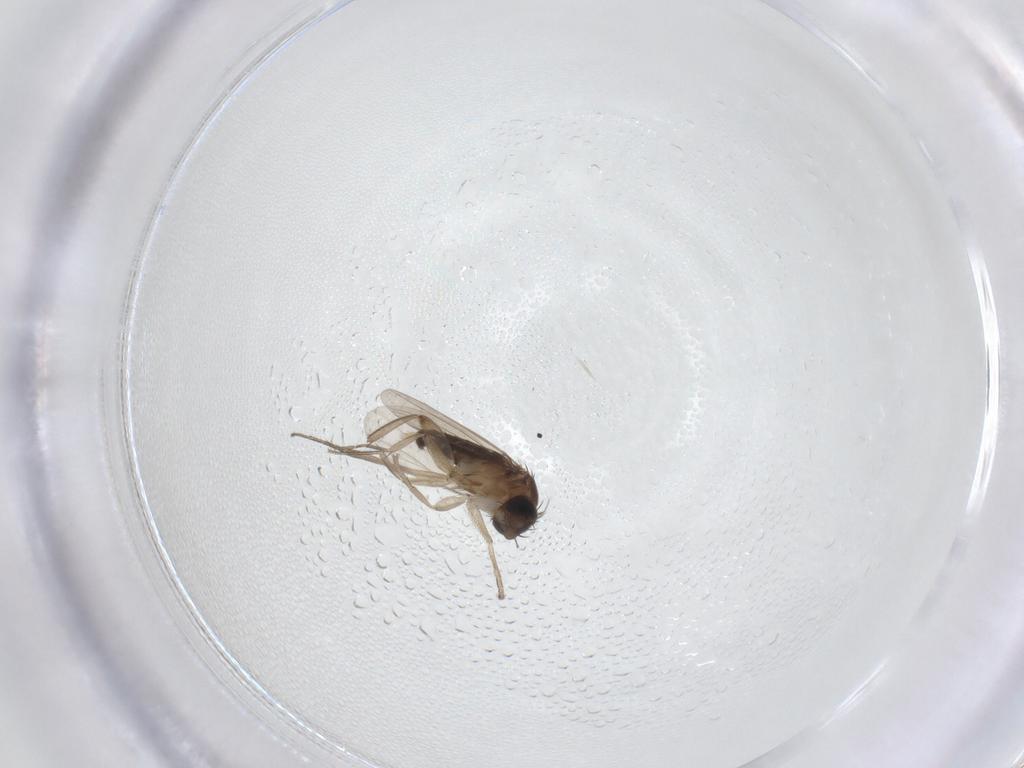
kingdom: Animalia
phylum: Arthropoda
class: Insecta
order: Diptera
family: Phoridae
